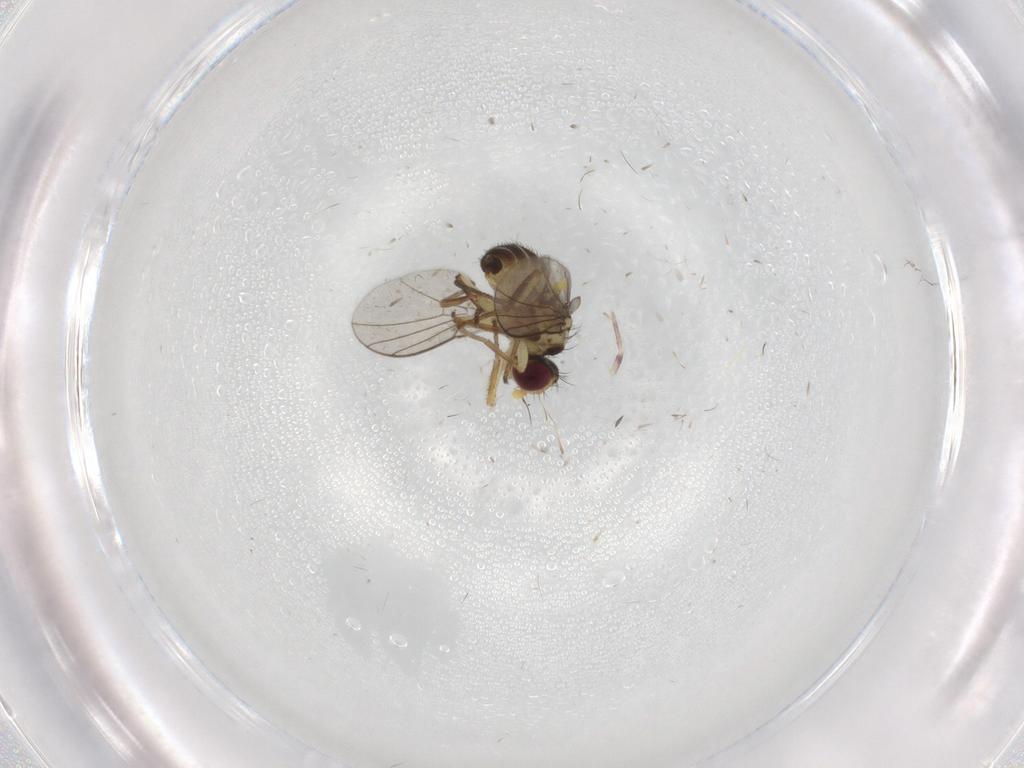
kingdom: Animalia
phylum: Arthropoda
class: Insecta
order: Diptera
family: Agromyzidae
